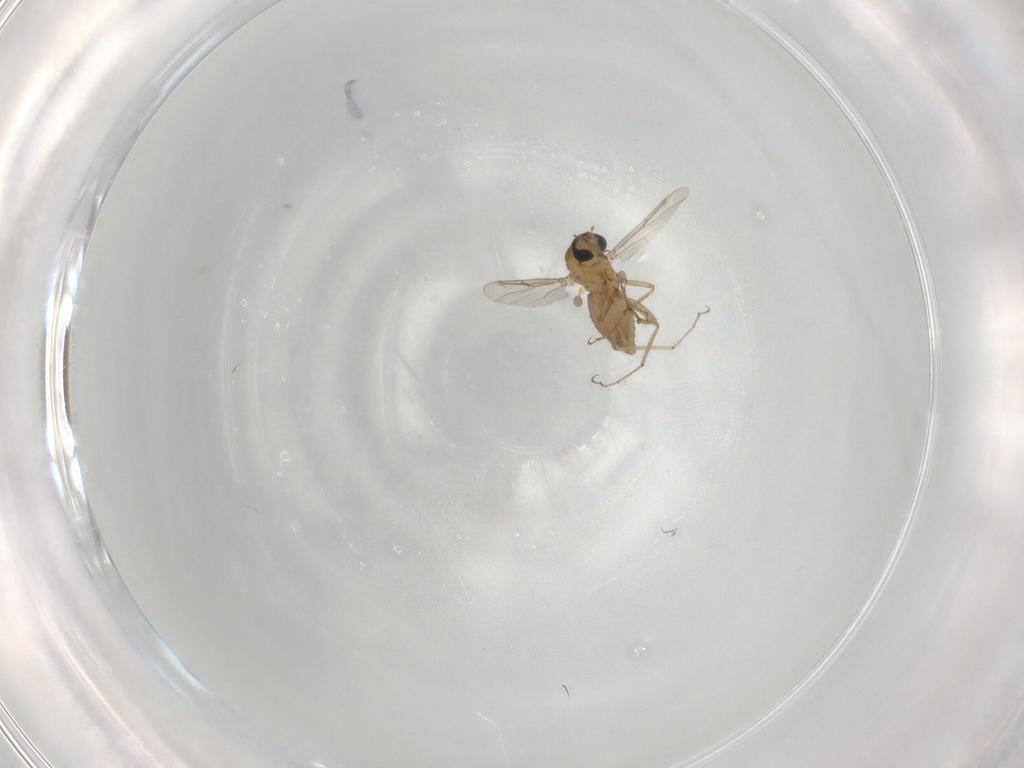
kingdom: Animalia
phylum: Arthropoda
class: Insecta
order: Diptera
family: Ceratopogonidae
